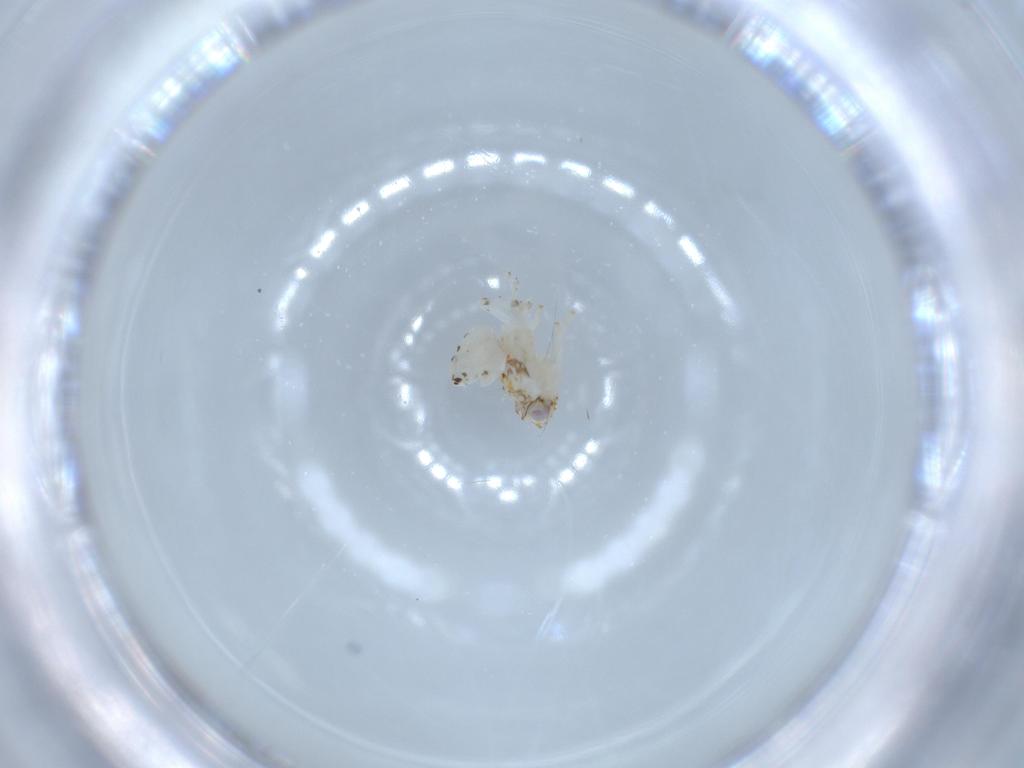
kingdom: Animalia
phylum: Arthropoda
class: Insecta
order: Hemiptera
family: Nogodinidae
